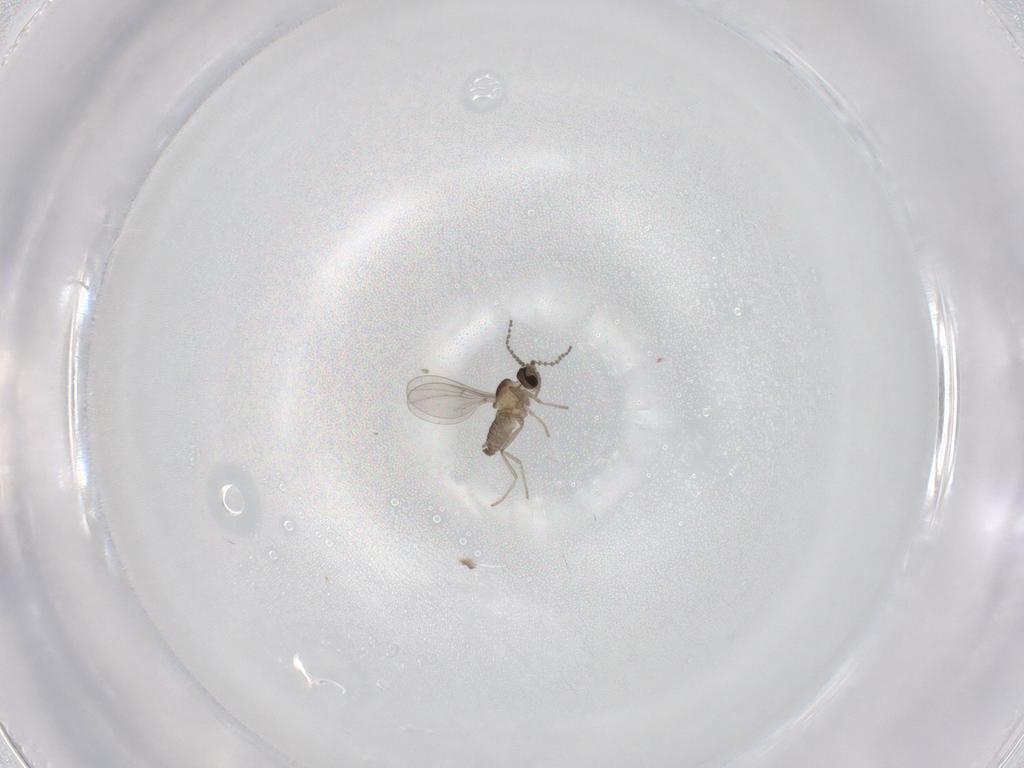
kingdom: Animalia
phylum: Arthropoda
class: Insecta
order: Diptera
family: Cecidomyiidae
